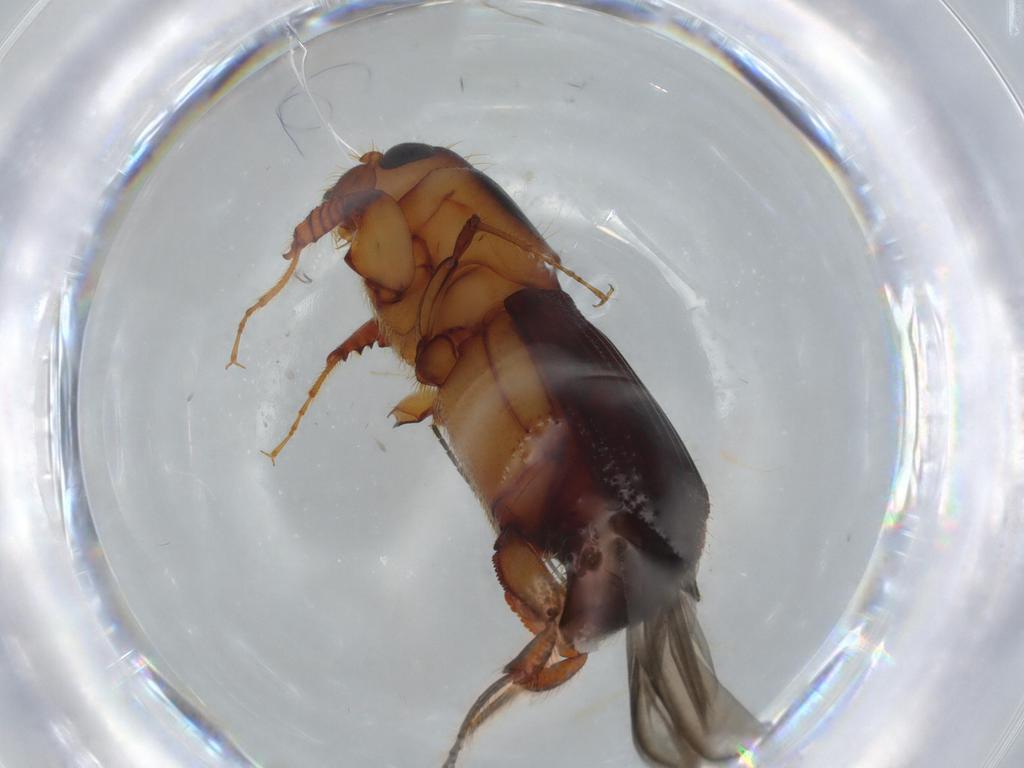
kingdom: Animalia
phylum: Arthropoda
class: Insecta
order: Coleoptera
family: Curculionidae
